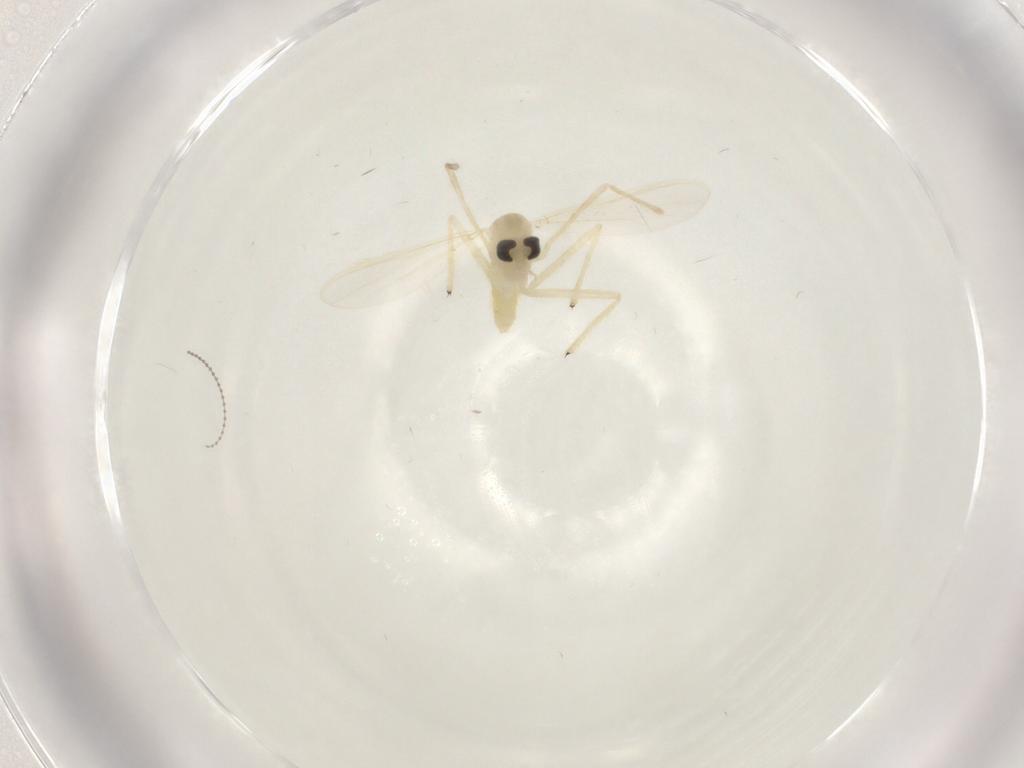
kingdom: Animalia
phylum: Arthropoda
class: Insecta
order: Diptera
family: Chironomidae
